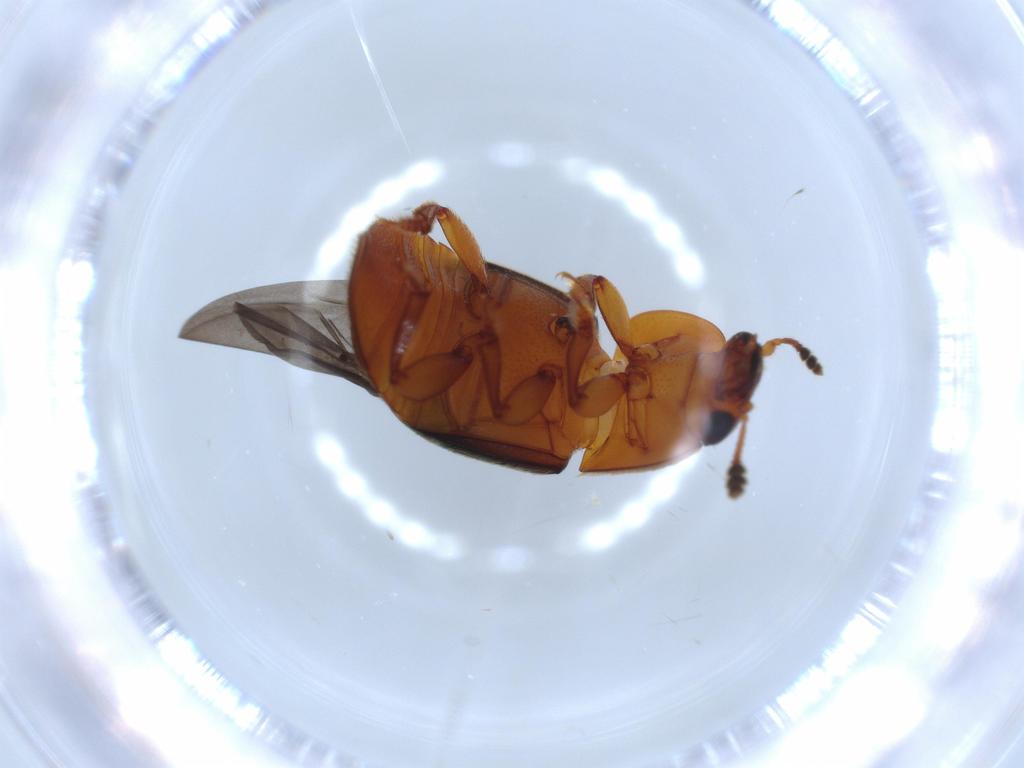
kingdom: Animalia
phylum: Arthropoda
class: Insecta
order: Coleoptera
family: Nitidulidae
